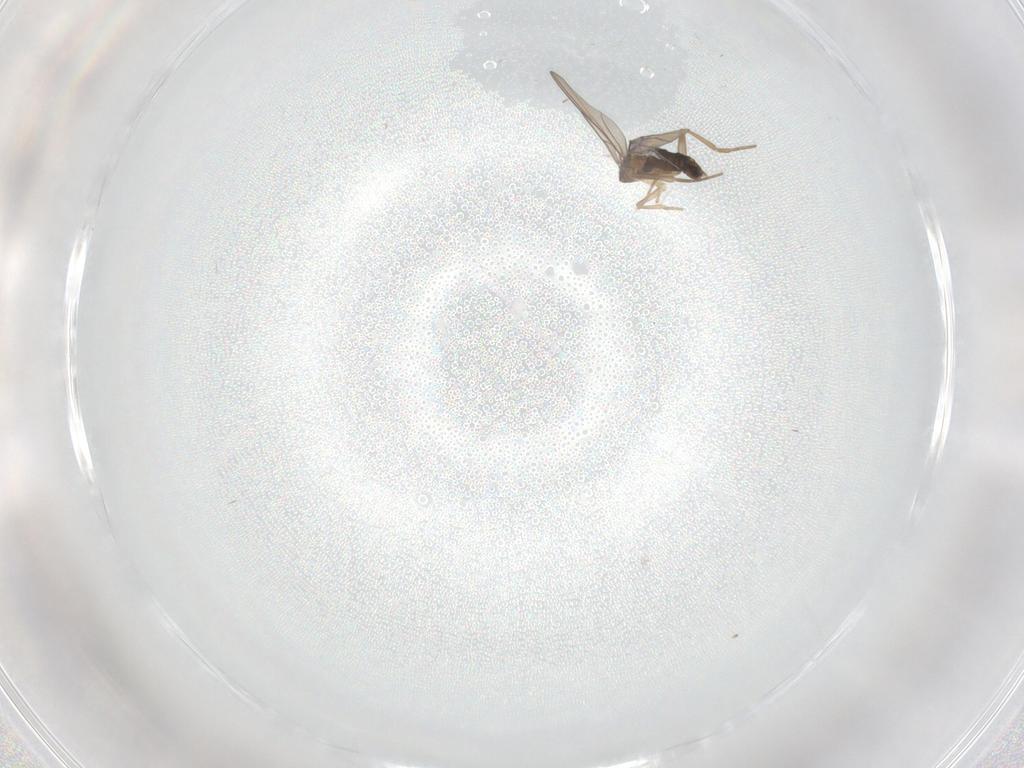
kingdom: Animalia
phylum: Arthropoda
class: Insecta
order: Diptera
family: Phoridae
